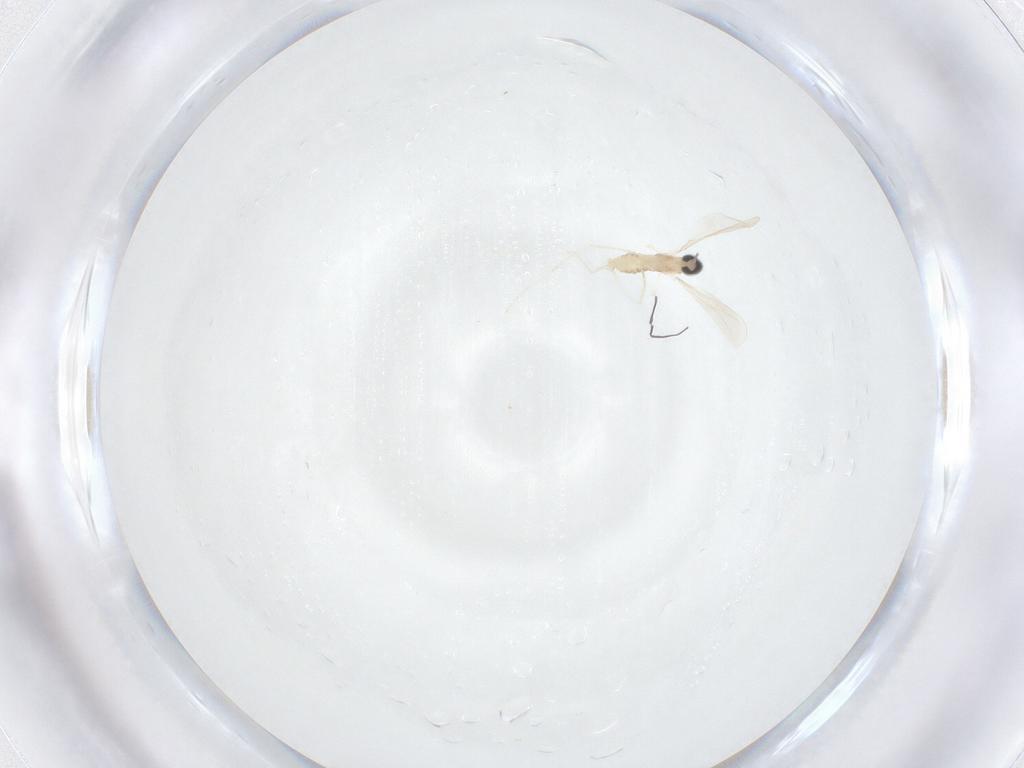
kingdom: Animalia
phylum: Arthropoda
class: Insecta
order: Diptera
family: Cecidomyiidae
